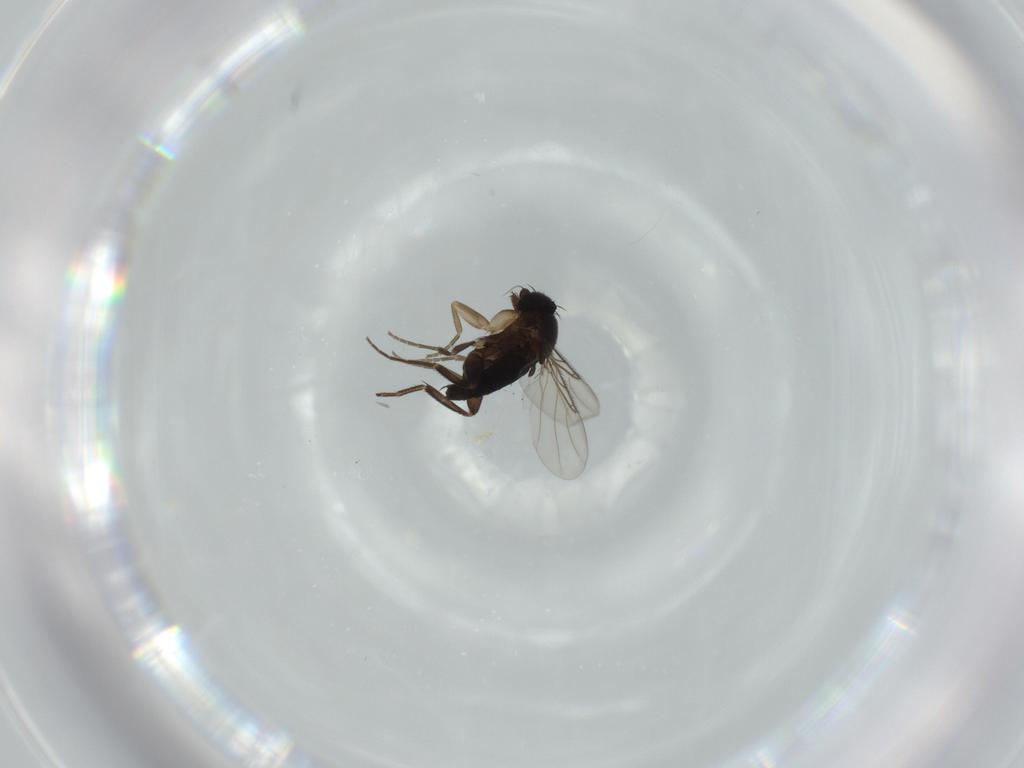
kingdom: Animalia
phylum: Arthropoda
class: Insecta
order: Diptera
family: Phoridae
